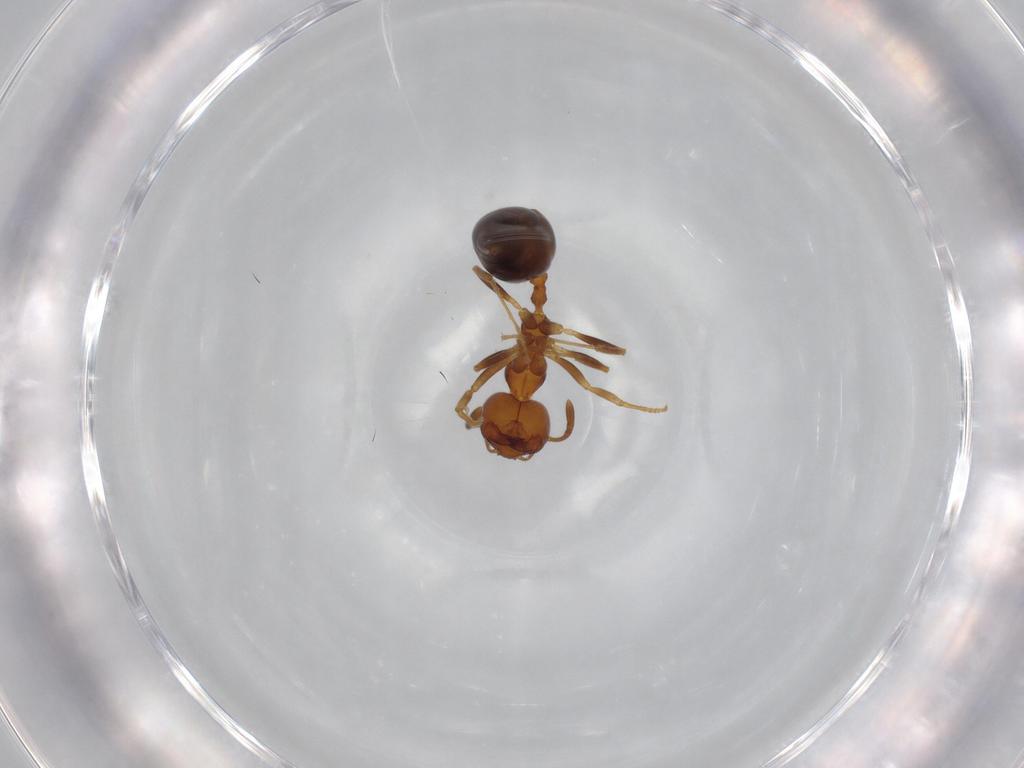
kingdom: Animalia
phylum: Arthropoda
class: Insecta
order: Hymenoptera
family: Formicidae
